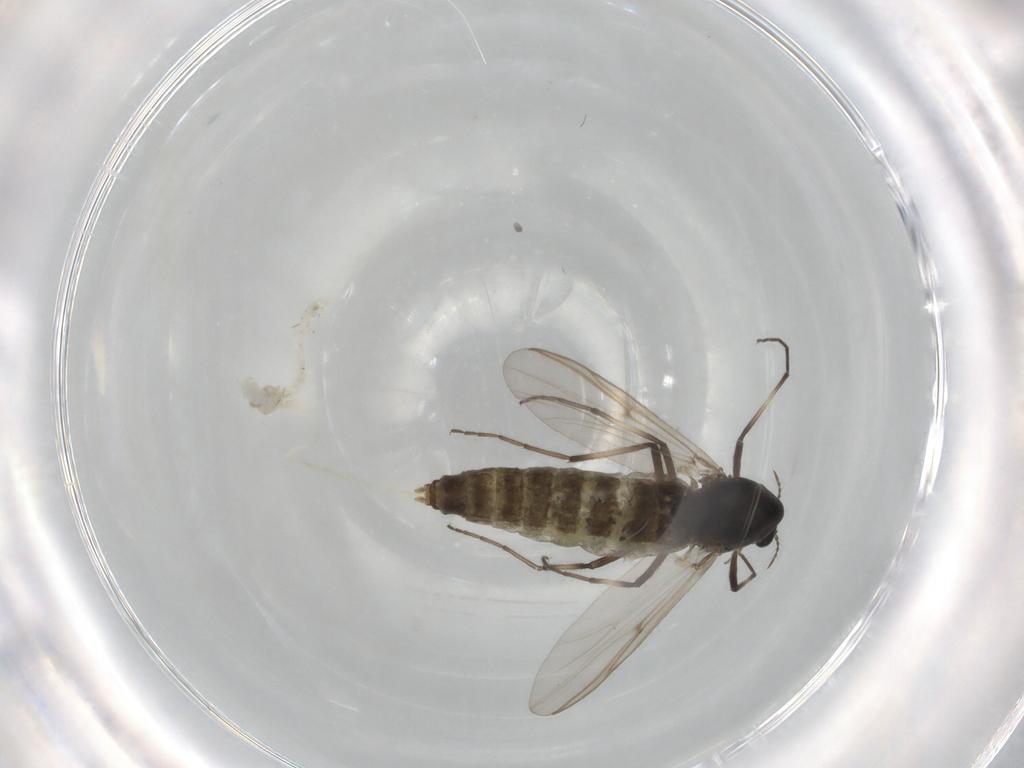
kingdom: Animalia
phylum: Arthropoda
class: Insecta
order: Diptera
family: Chironomidae
